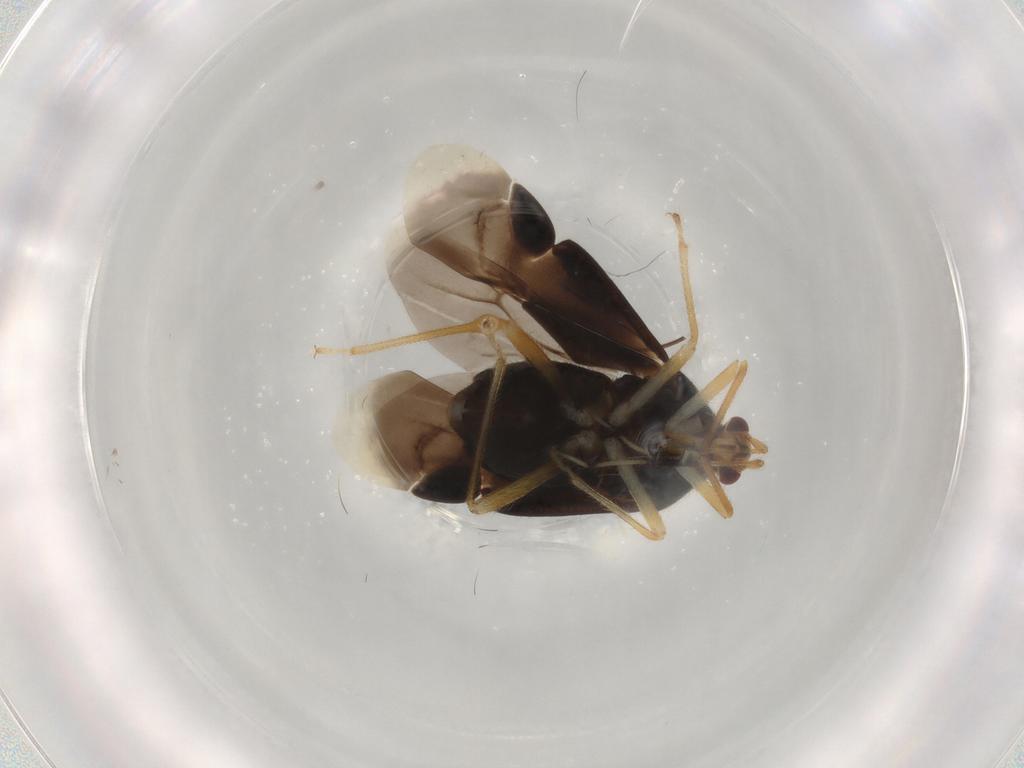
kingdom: Animalia
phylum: Arthropoda
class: Insecta
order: Hemiptera
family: Miridae
